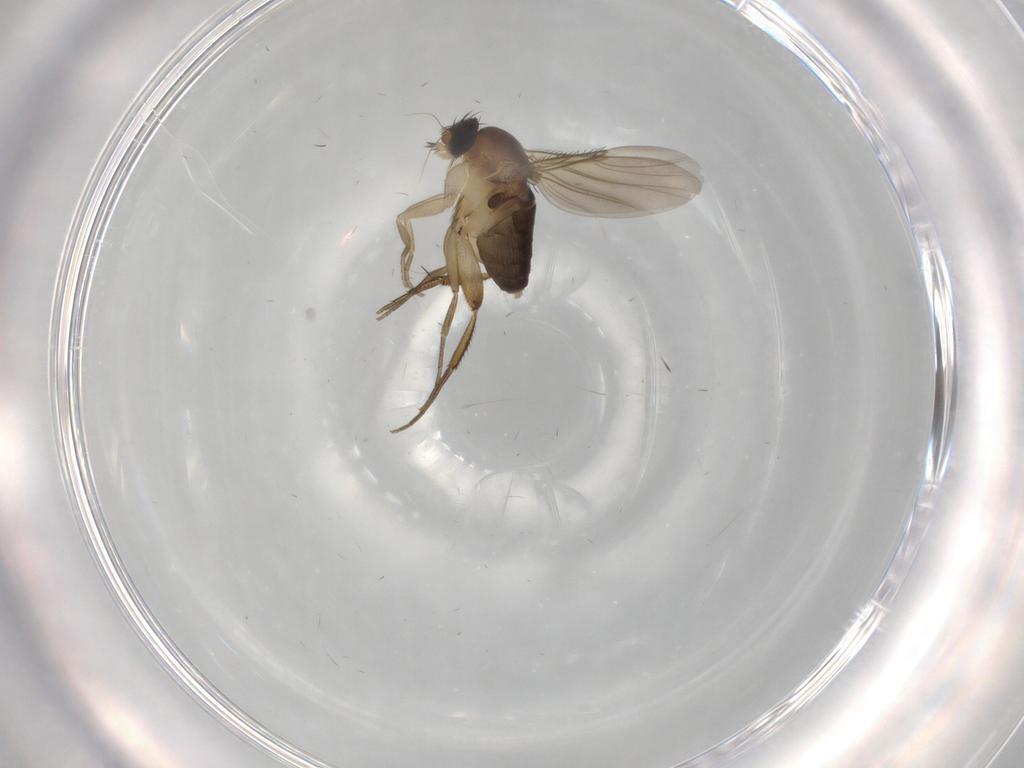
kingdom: Animalia
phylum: Arthropoda
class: Insecta
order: Diptera
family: Phoridae
